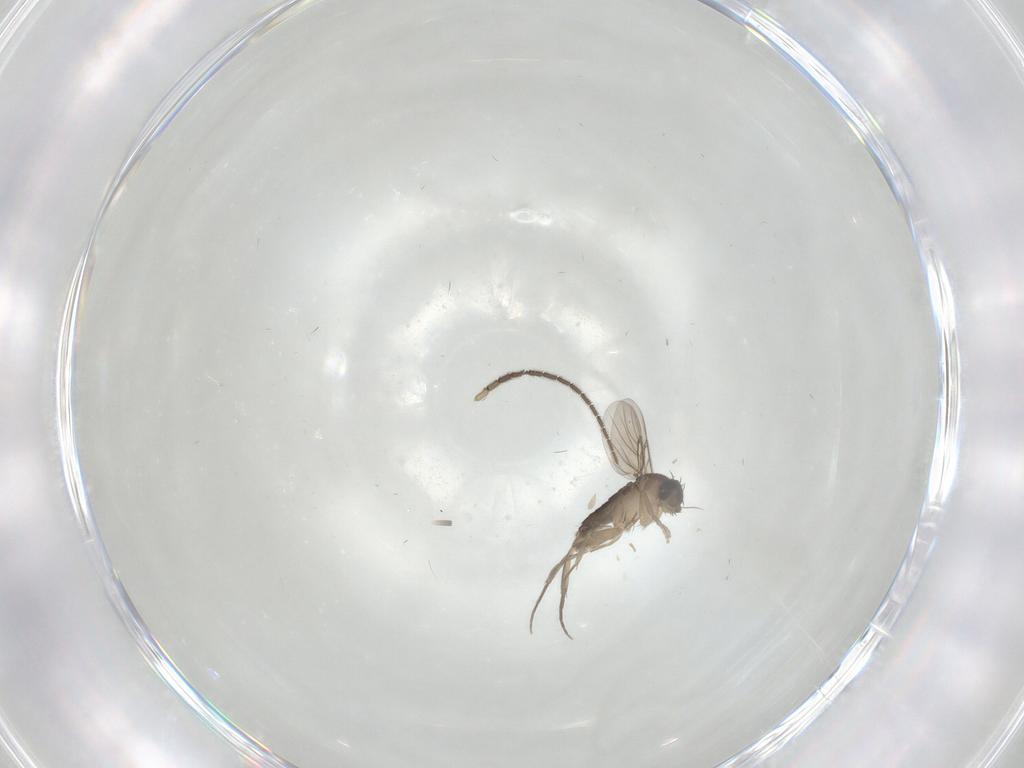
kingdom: Animalia
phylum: Arthropoda
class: Insecta
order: Diptera
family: Sciaridae
